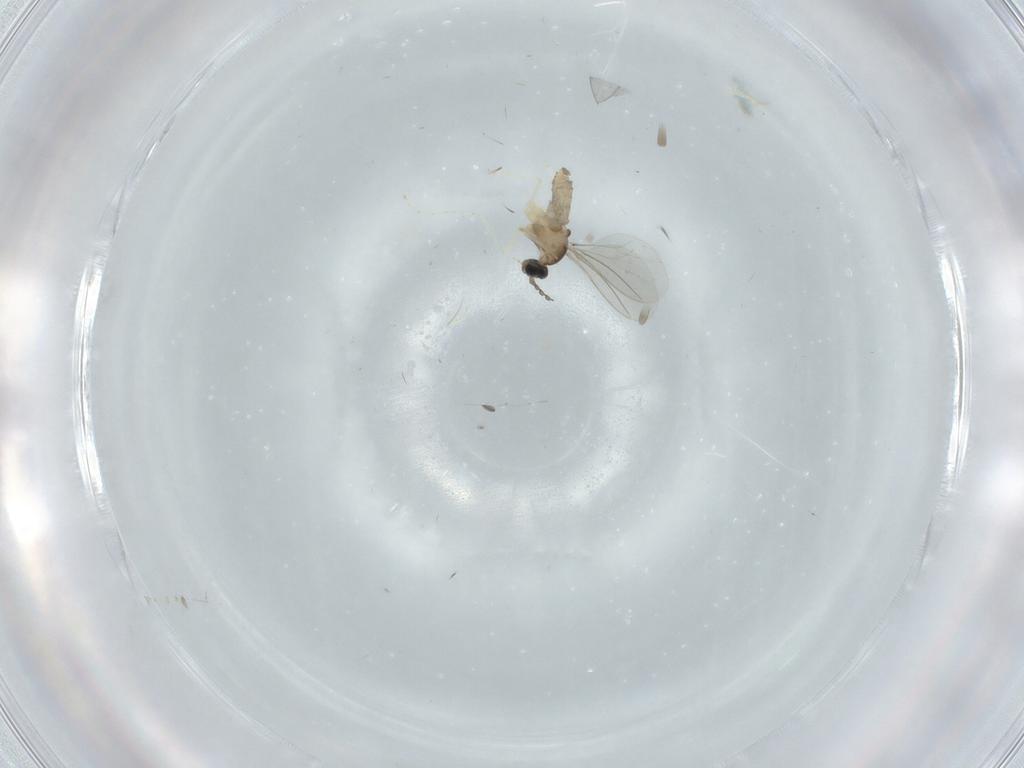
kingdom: Animalia
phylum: Arthropoda
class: Insecta
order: Diptera
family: Cecidomyiidae
